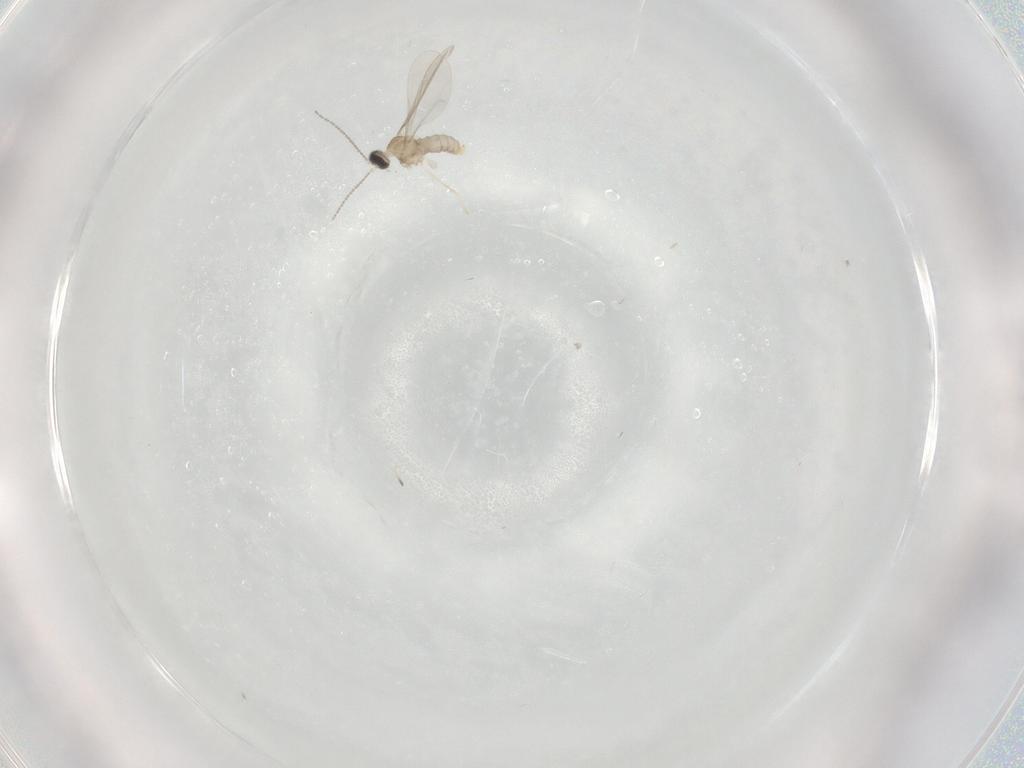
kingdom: Animalia
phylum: Arthropoda
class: Insecta
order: Diptera
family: Cecidomyiidae
